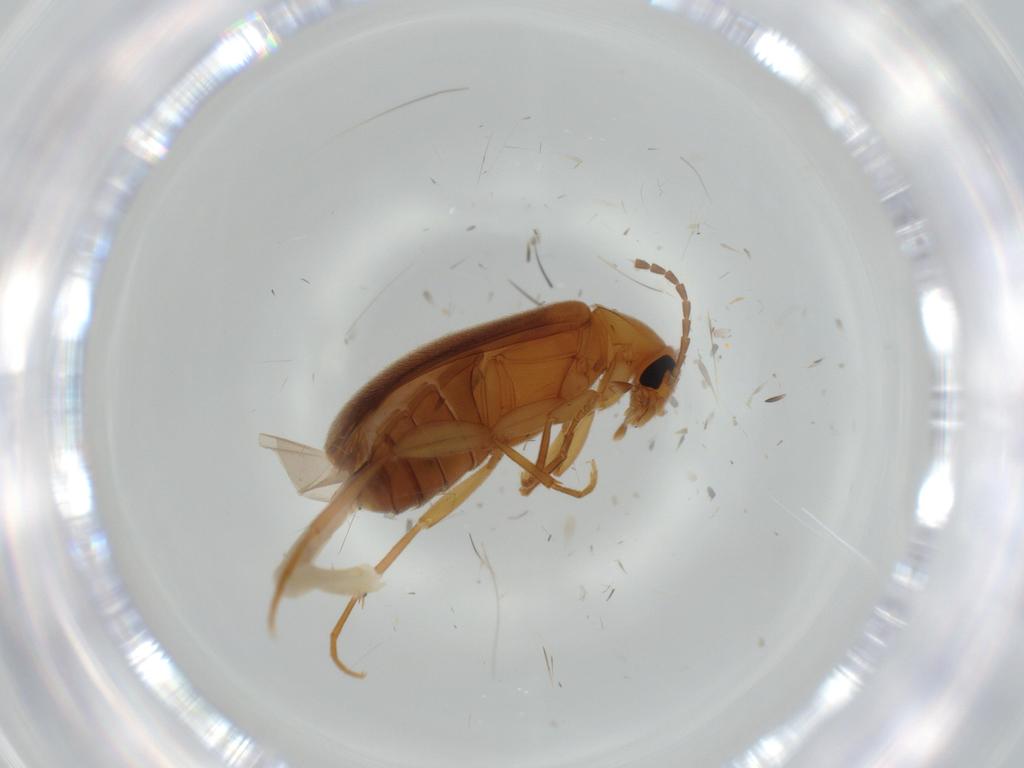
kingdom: Animalia
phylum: Arthropoda
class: Insecta
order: Coleoptera
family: Scraptiidae
